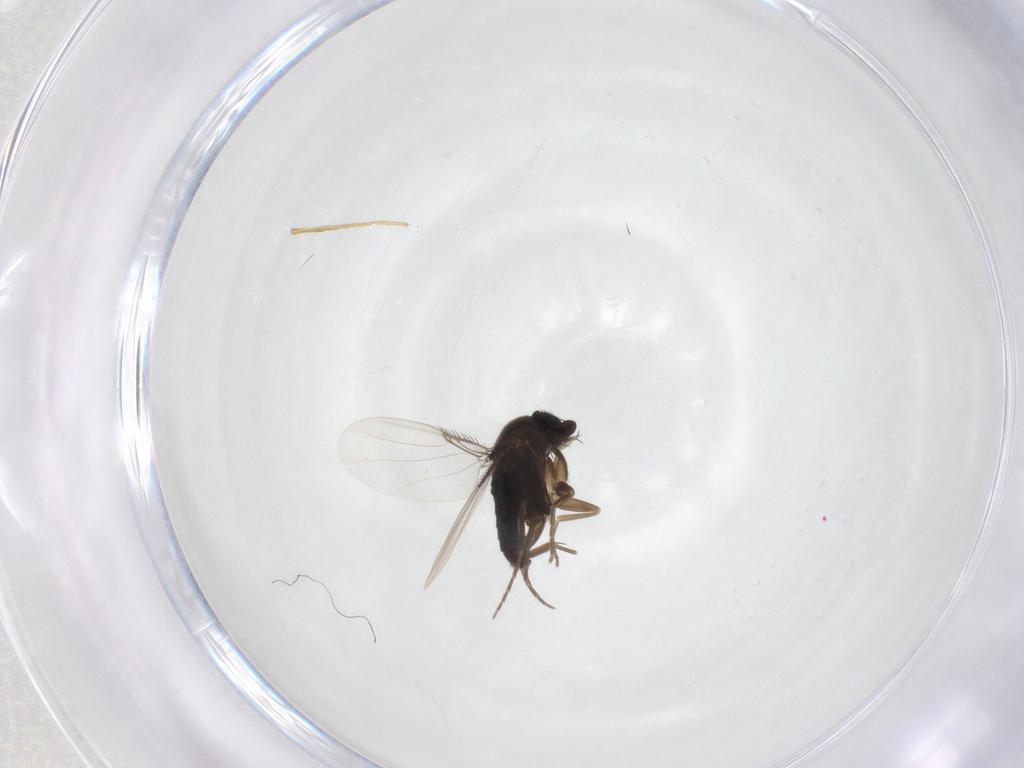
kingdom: Animalia
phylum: Arthropoda
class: Insecta
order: Diptera
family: Phoridae
